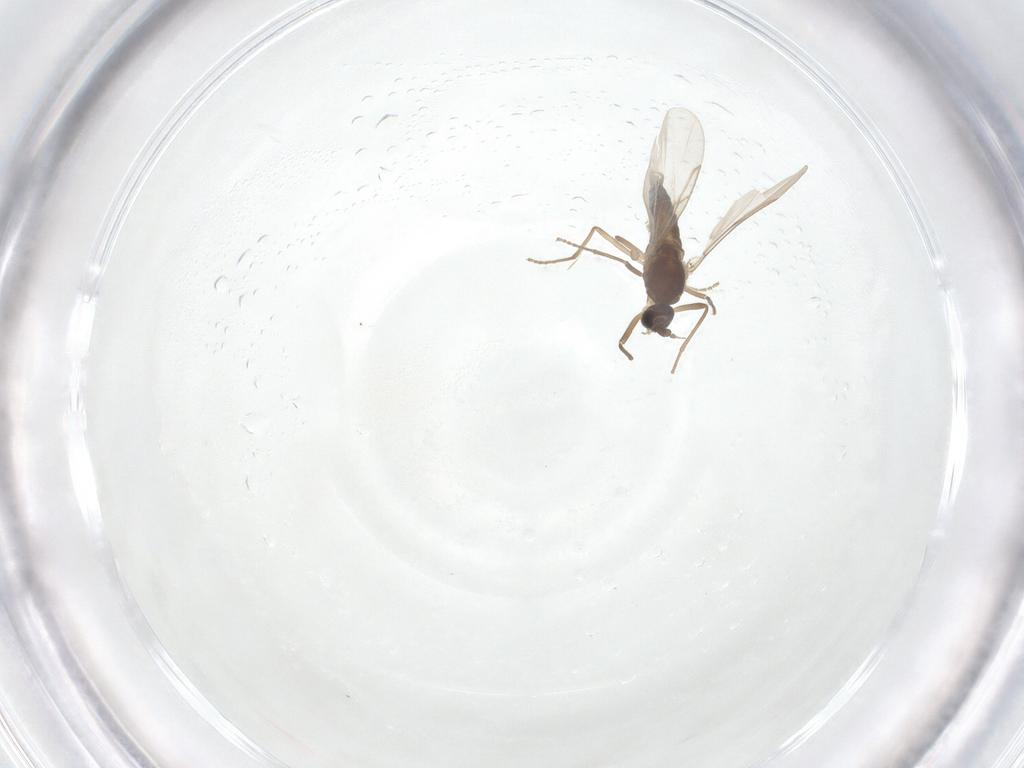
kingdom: Animalia
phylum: Arthropoda
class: Insecta
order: Diptera
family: Cecidomyiidae
